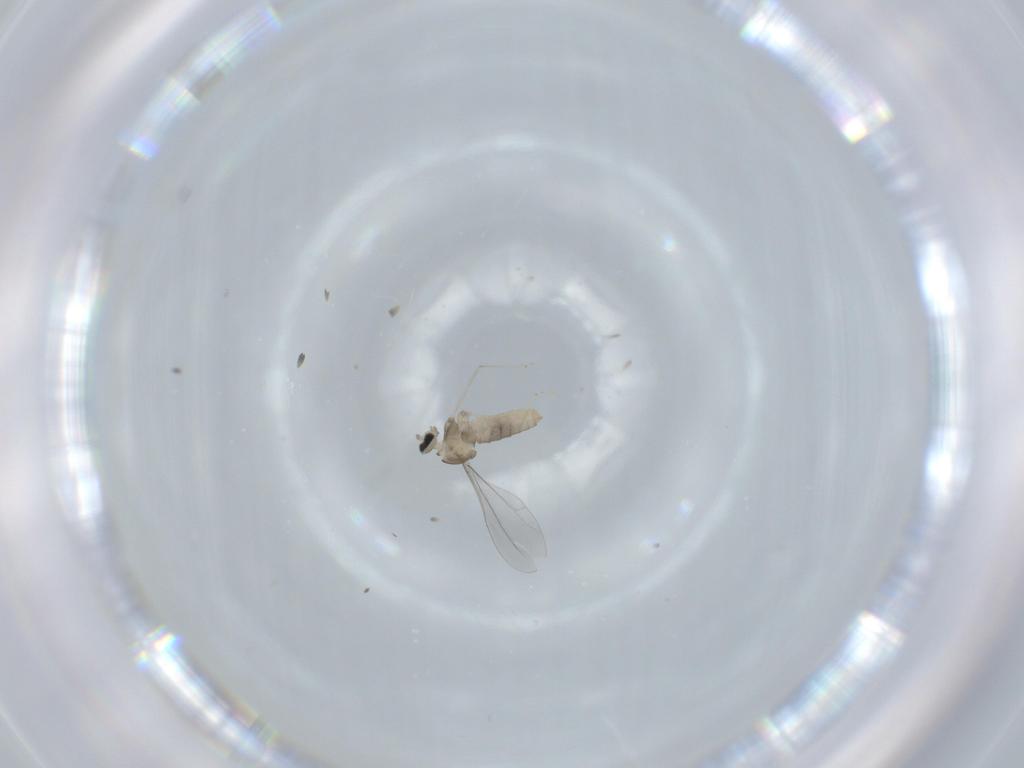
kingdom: Animalia
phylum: Arthropoda
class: Insecta
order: Diptera
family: Cecidomyiidae
